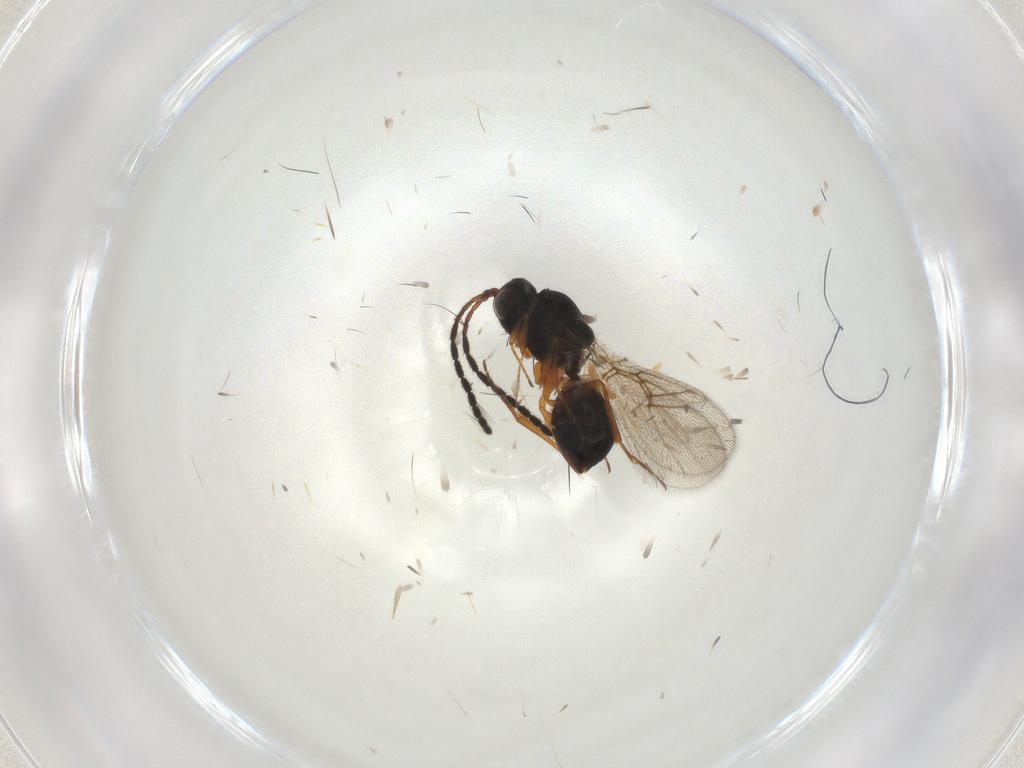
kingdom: Animalia
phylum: Arthropoda
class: Insecta
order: Hymenoptera
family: Figitidae
